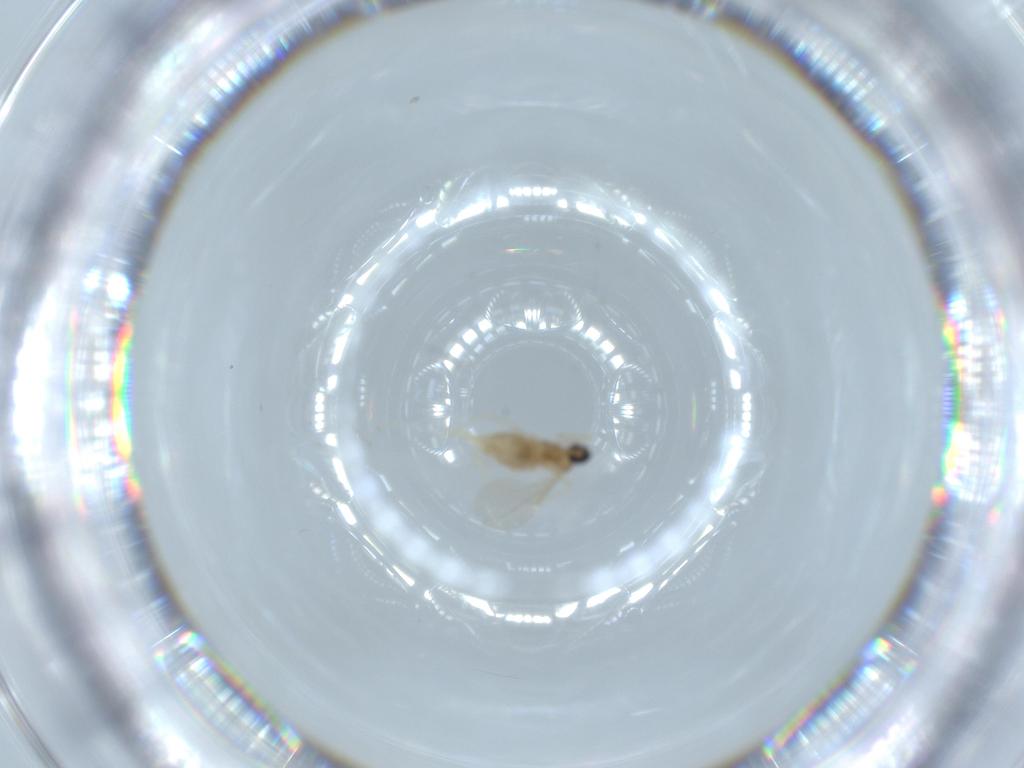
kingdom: Animalia
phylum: Arthropoda
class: Insecta
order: Diptera
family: Cecidomyiidae
